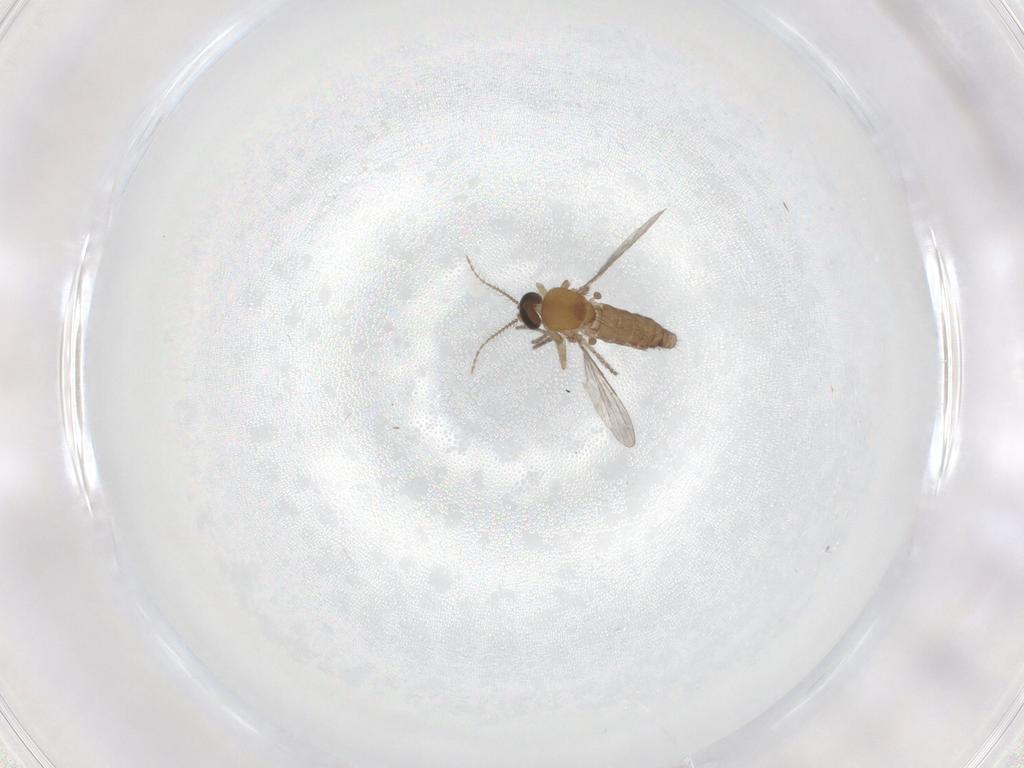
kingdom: Animalia
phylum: Arthropoda
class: Insecta
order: Diptera
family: Ceratopogonidae
